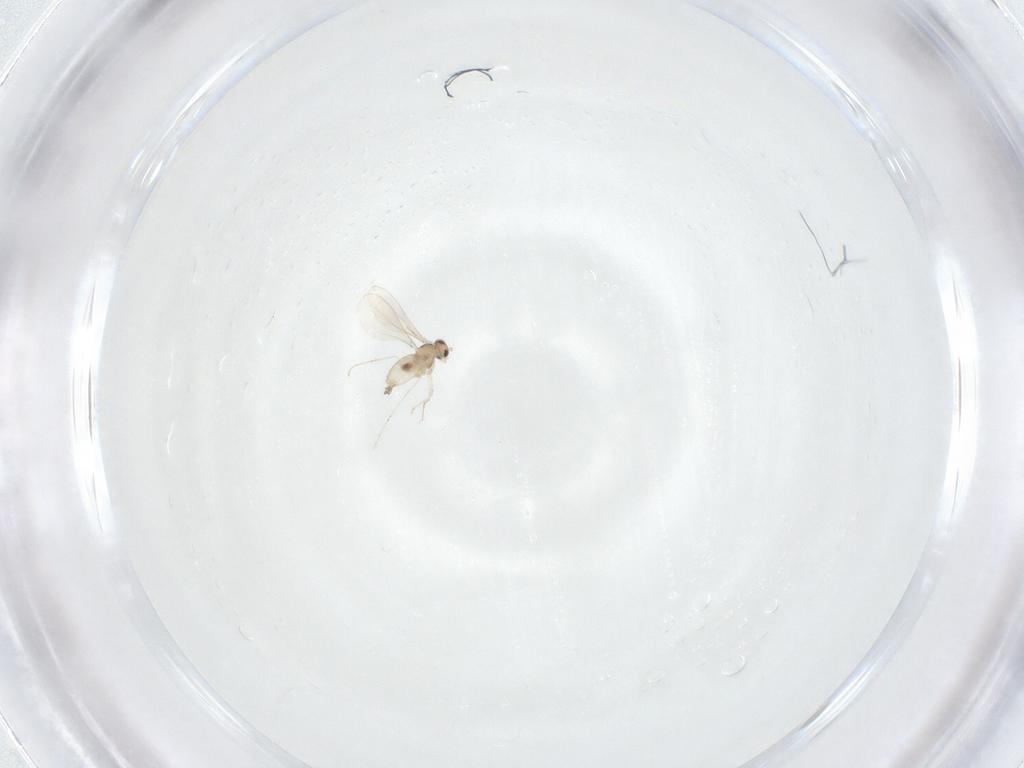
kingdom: Animalia
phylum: Arthropoda
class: Insecta
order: Diptera
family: Cecidomyiidae
